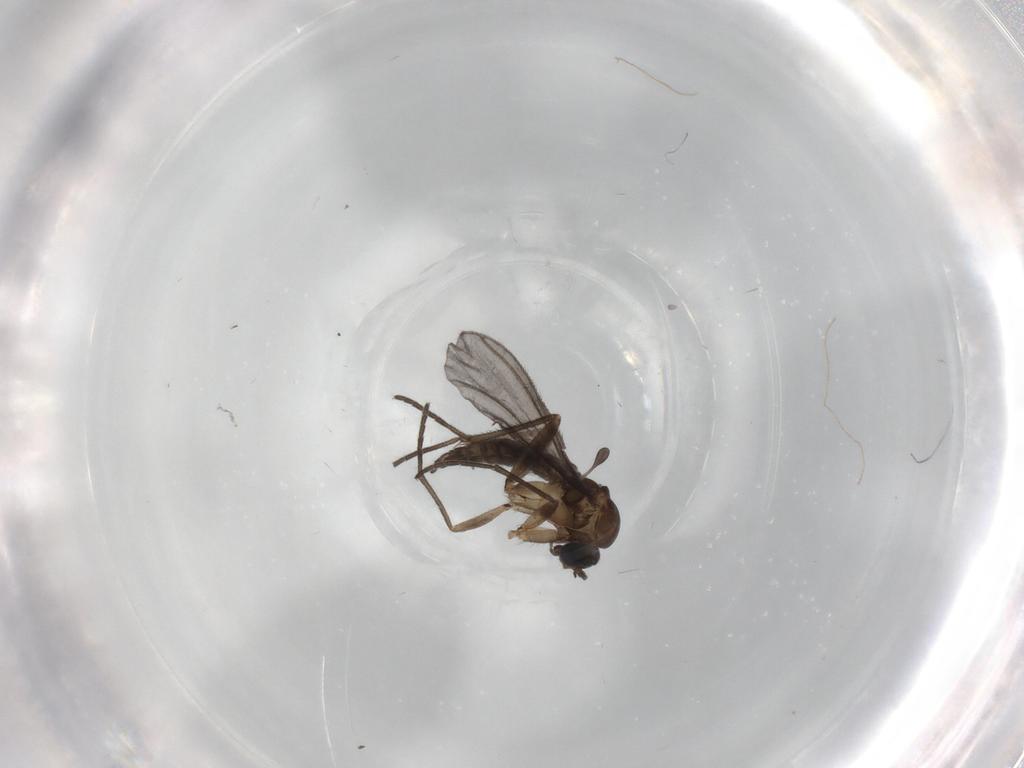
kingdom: Animalia
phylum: Arthropoda
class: Insecta
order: Diptera
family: Sciaridae
